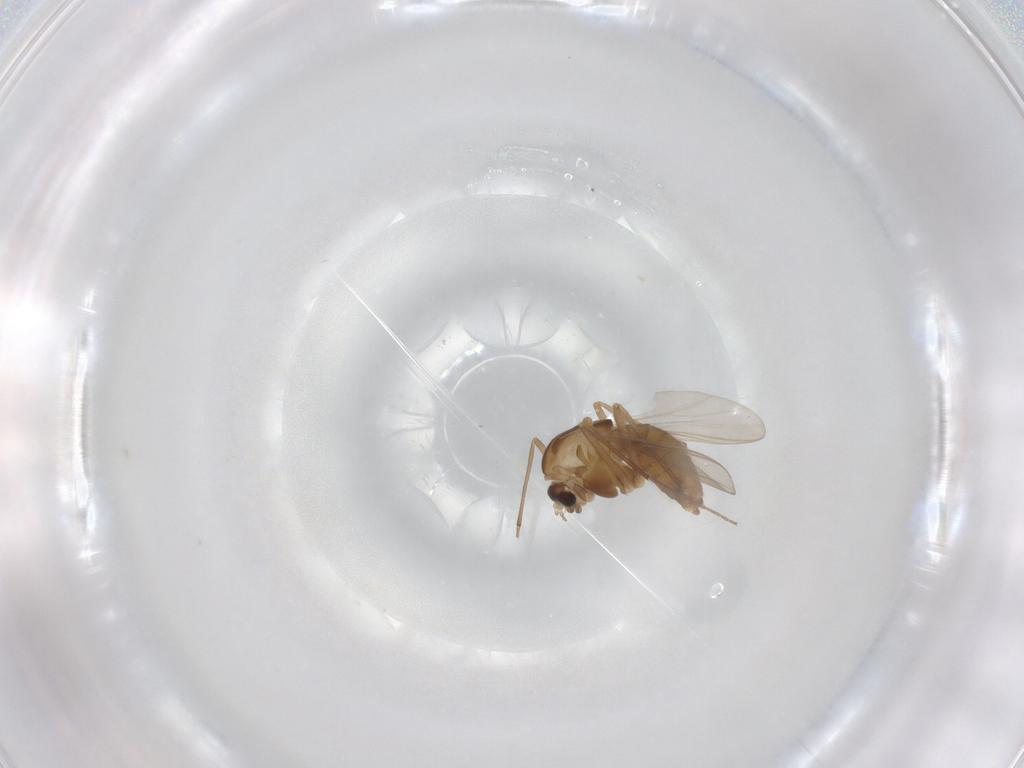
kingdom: Animalia
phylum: Arthropoda
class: Insecta
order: Diptera
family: Chironomidae
